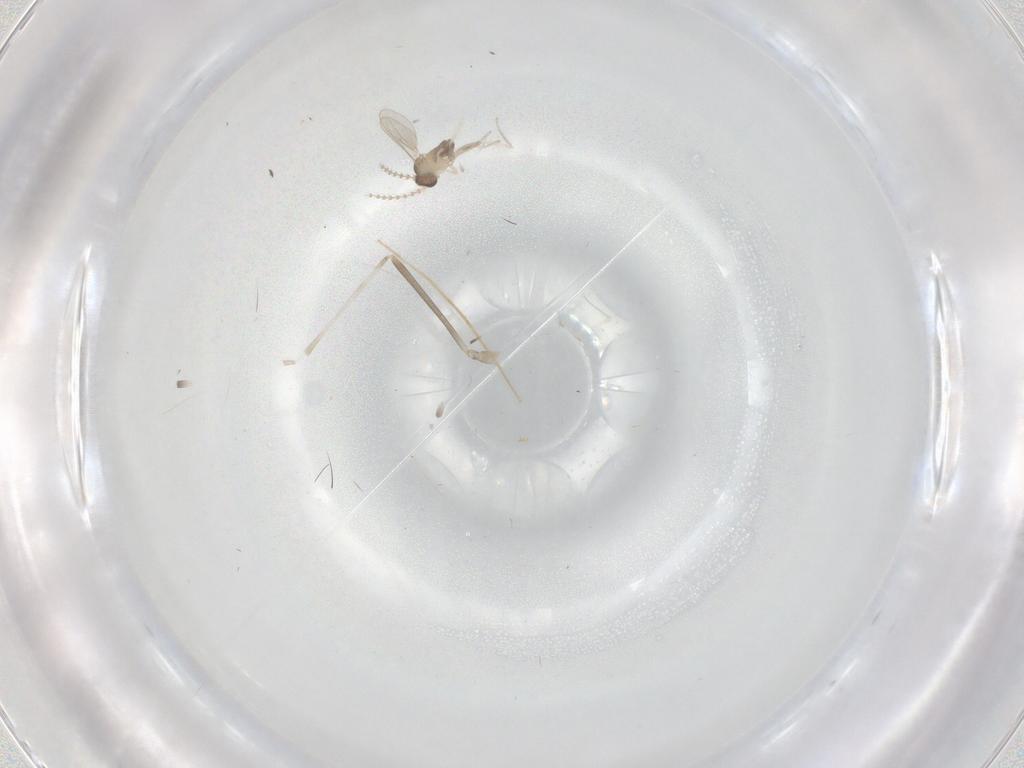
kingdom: Animalia
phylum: Arthropoda
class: Insecta
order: Diptera
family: Cecidomyiidae
